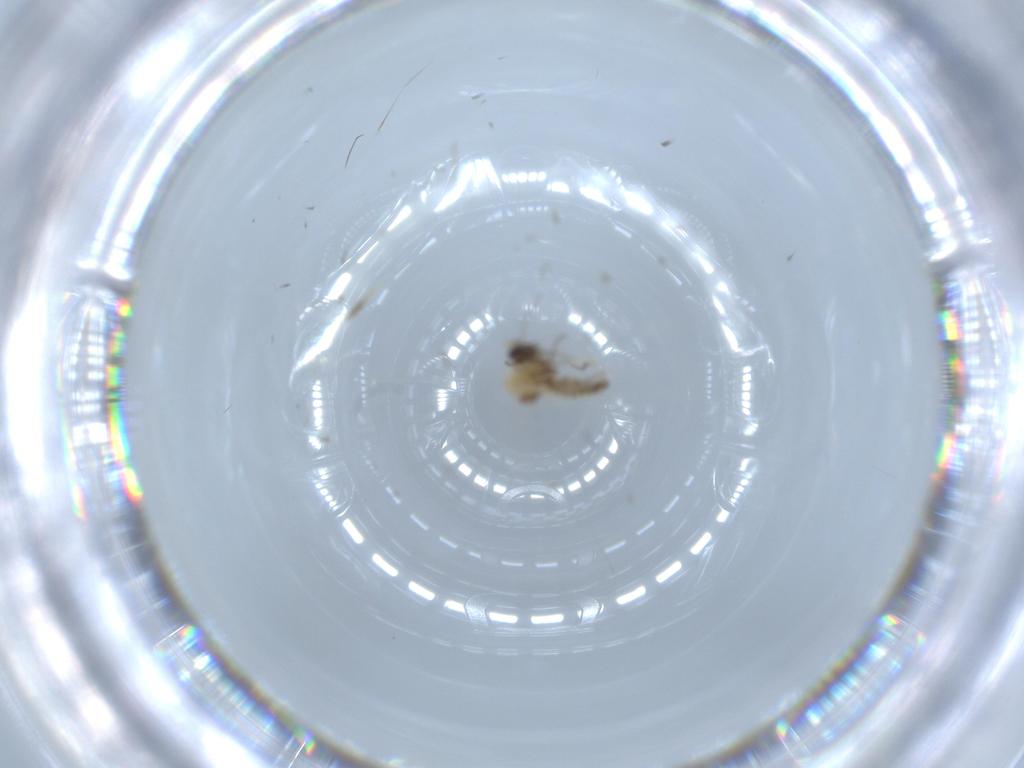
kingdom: Animalia
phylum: Arthropoda
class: Insecta
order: Diptera
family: Ceratopogonidae
